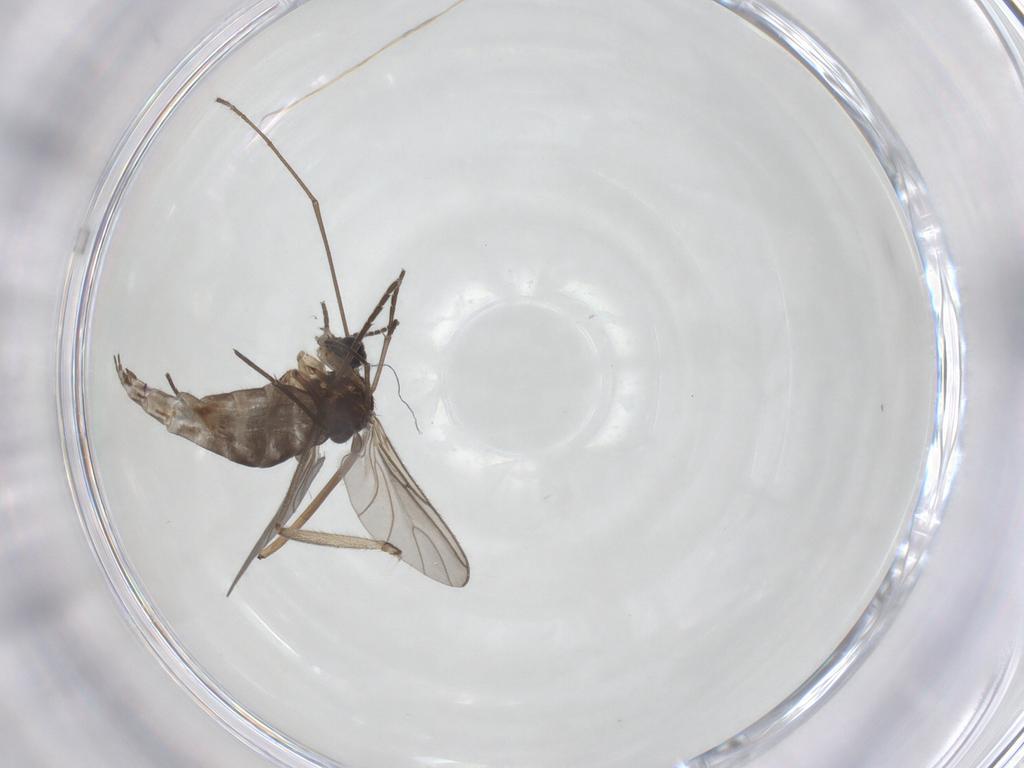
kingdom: Animalia
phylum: Arthropoda
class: Insecta
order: Diptera
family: Sciaridae
